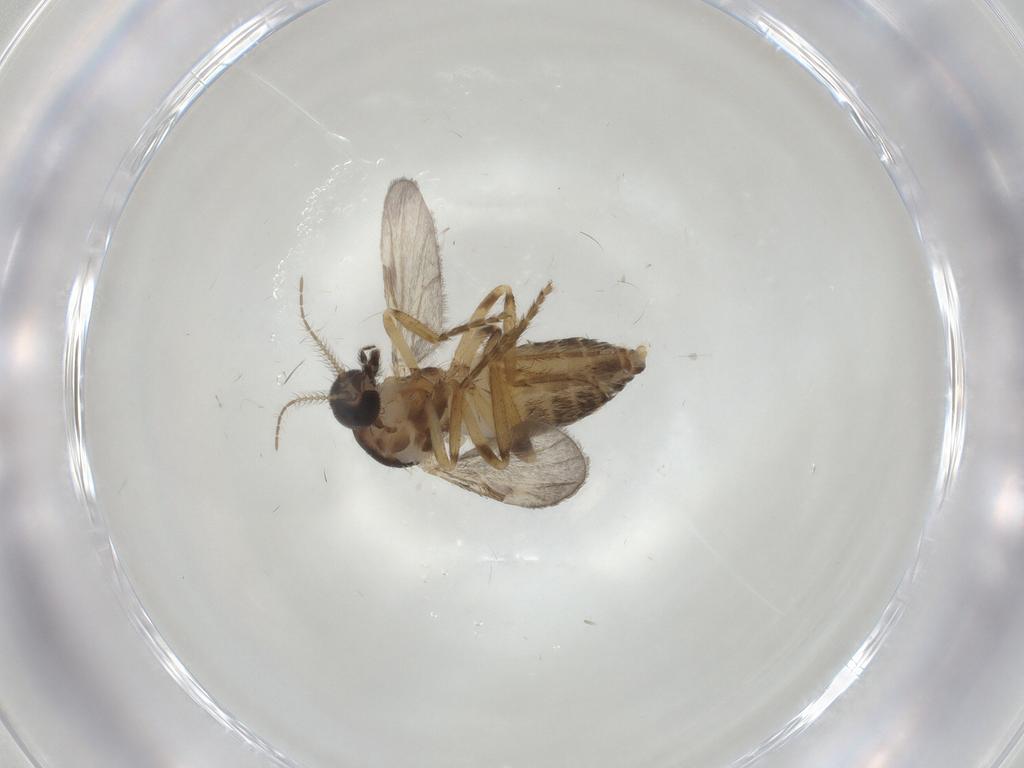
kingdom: Animalia
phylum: Arthropoda
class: Insecta
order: Diptera
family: Ceratopogonidae
